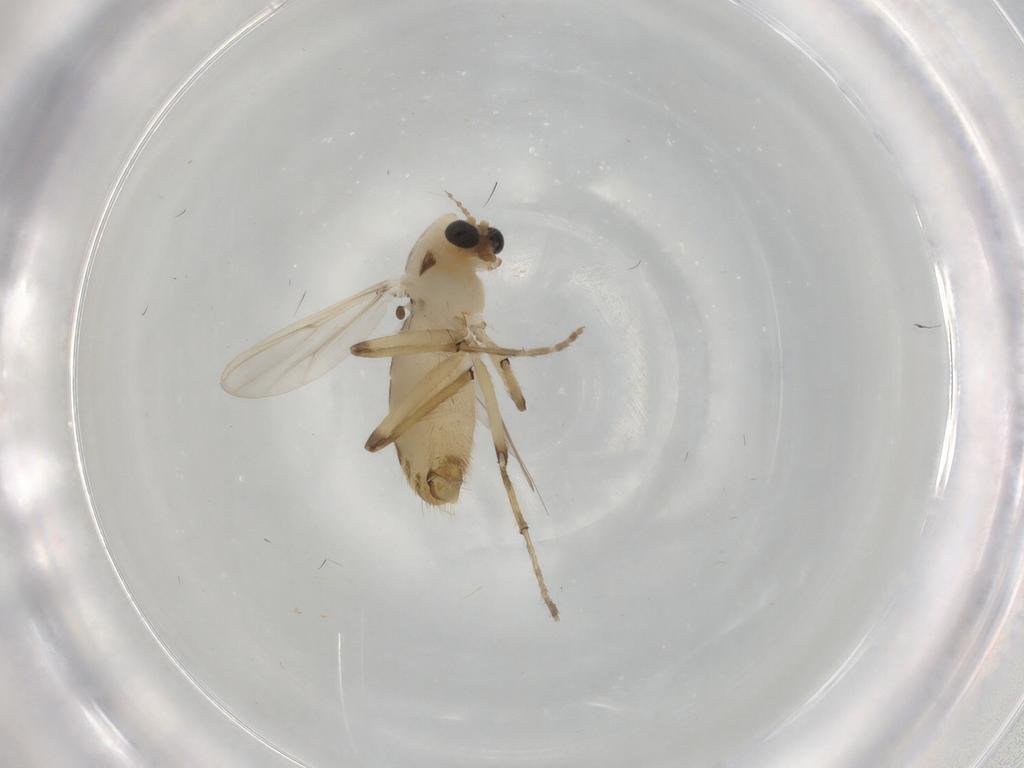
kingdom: Animalia
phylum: Arthropoda
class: Insecta
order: Diptera
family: Chironomidae
